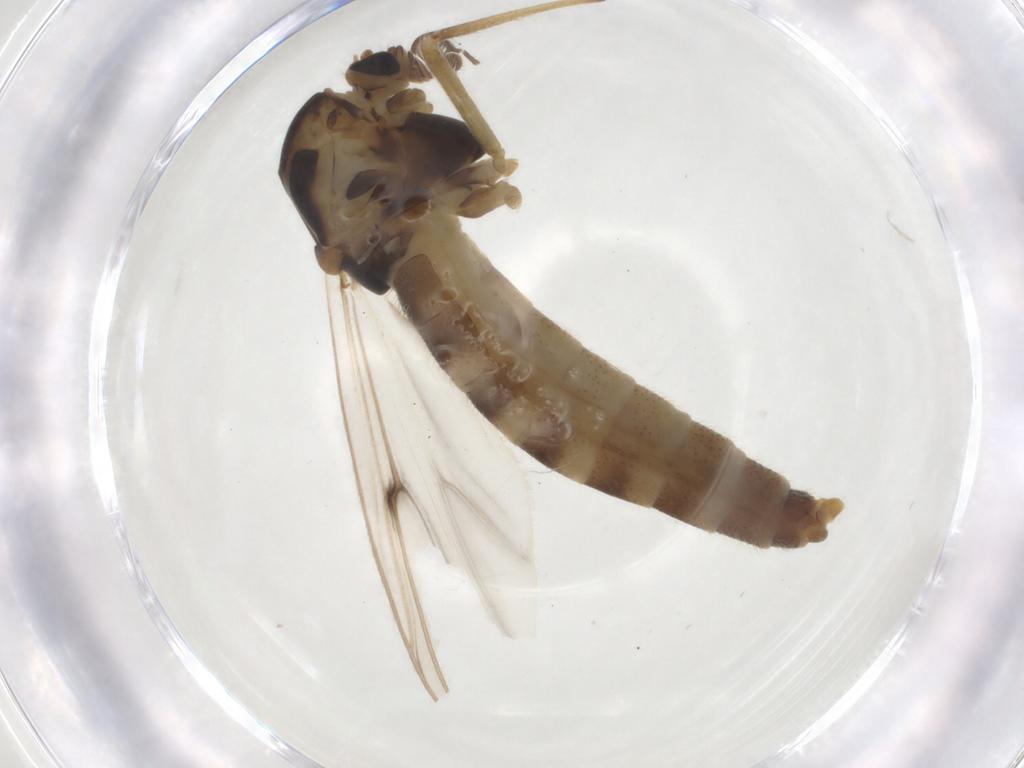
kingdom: Animalia
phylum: Arthropoda
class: Insecta
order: Diptera
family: Chironomidae
